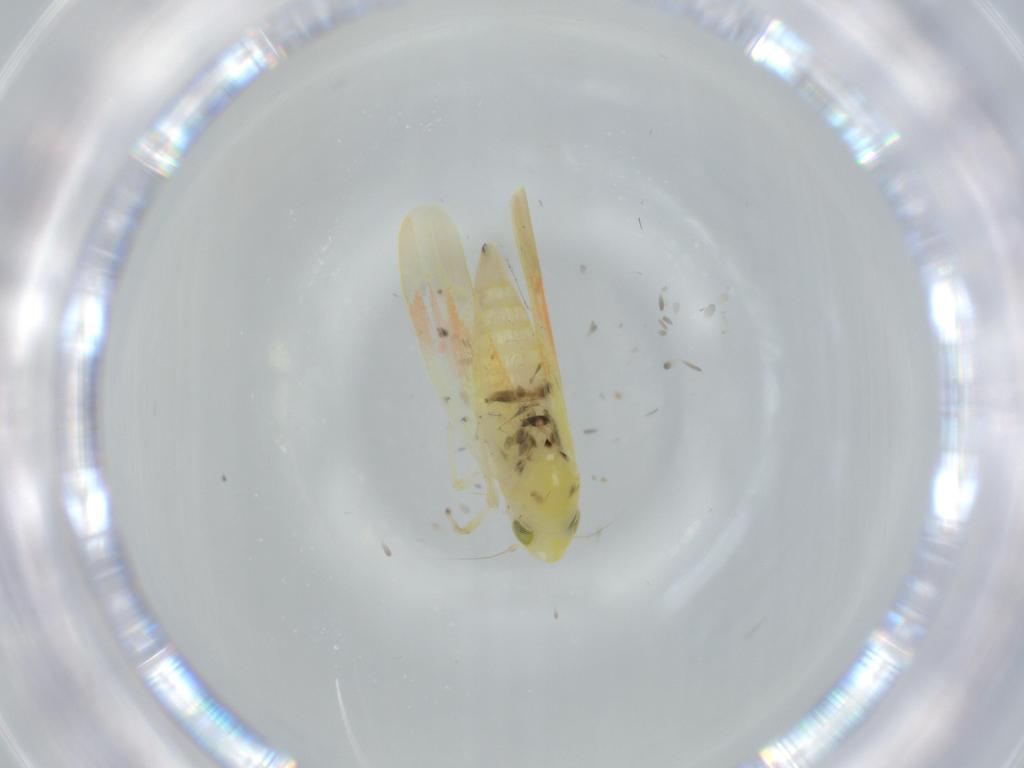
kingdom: Animalia
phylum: Arthropoda
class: Insecta
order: Hemiptera
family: Cicadellidae
